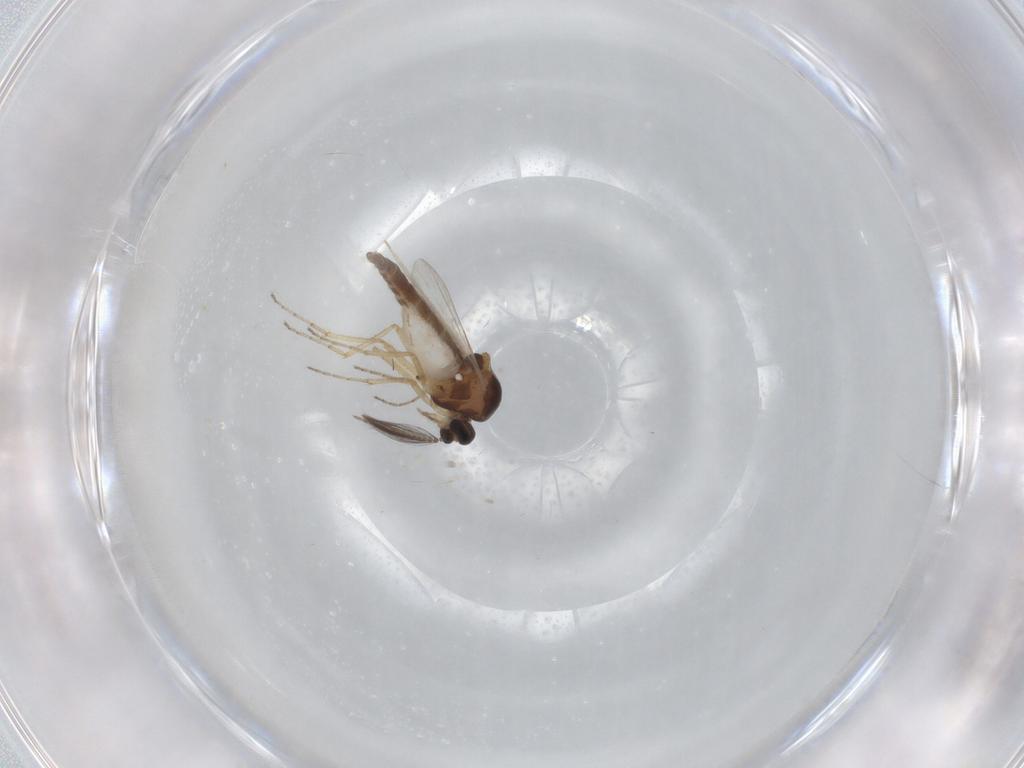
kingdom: Animalia
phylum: Arthropoda
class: Insecta
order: Diptera
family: Ceratopogonidae
